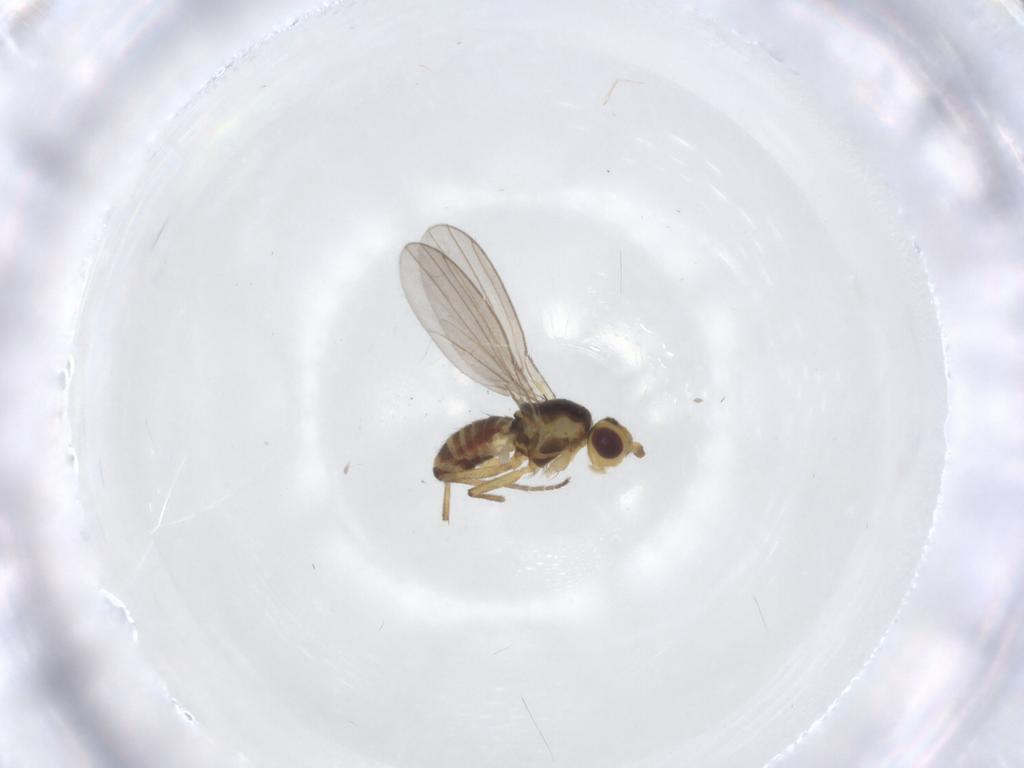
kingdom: Animalia
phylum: Arthropoda
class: Insecta
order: Diptera
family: Agromyzidae
